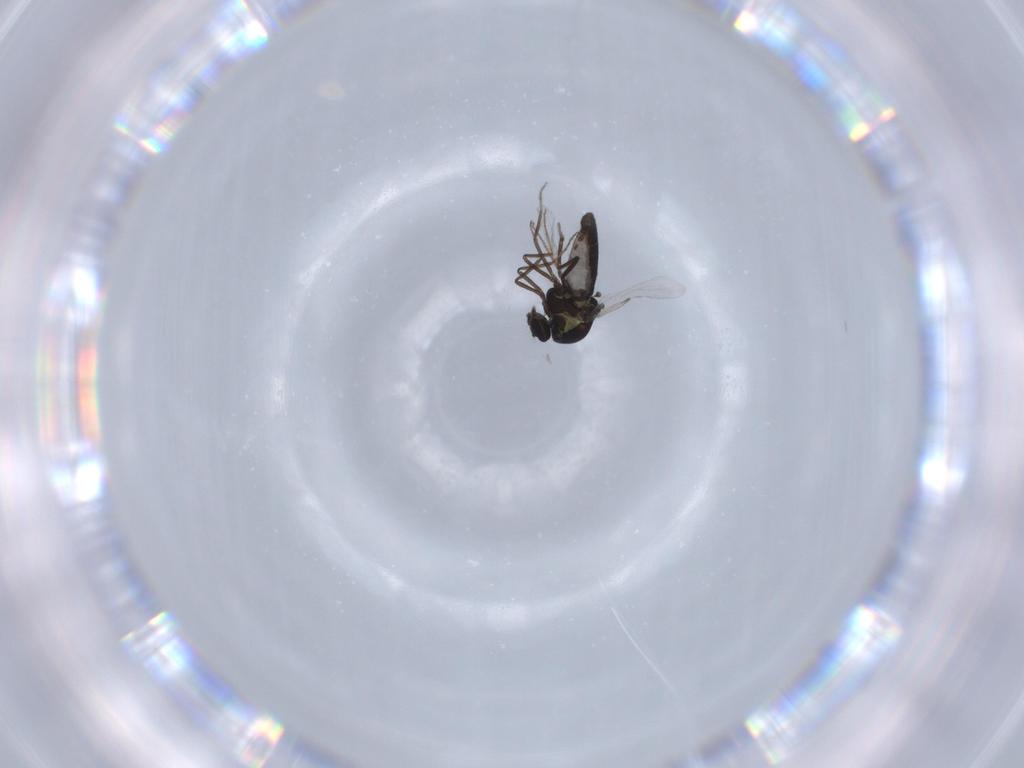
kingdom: Animalia
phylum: Arthropoda
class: Insecta
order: Diptera
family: Ceratopogonidae
